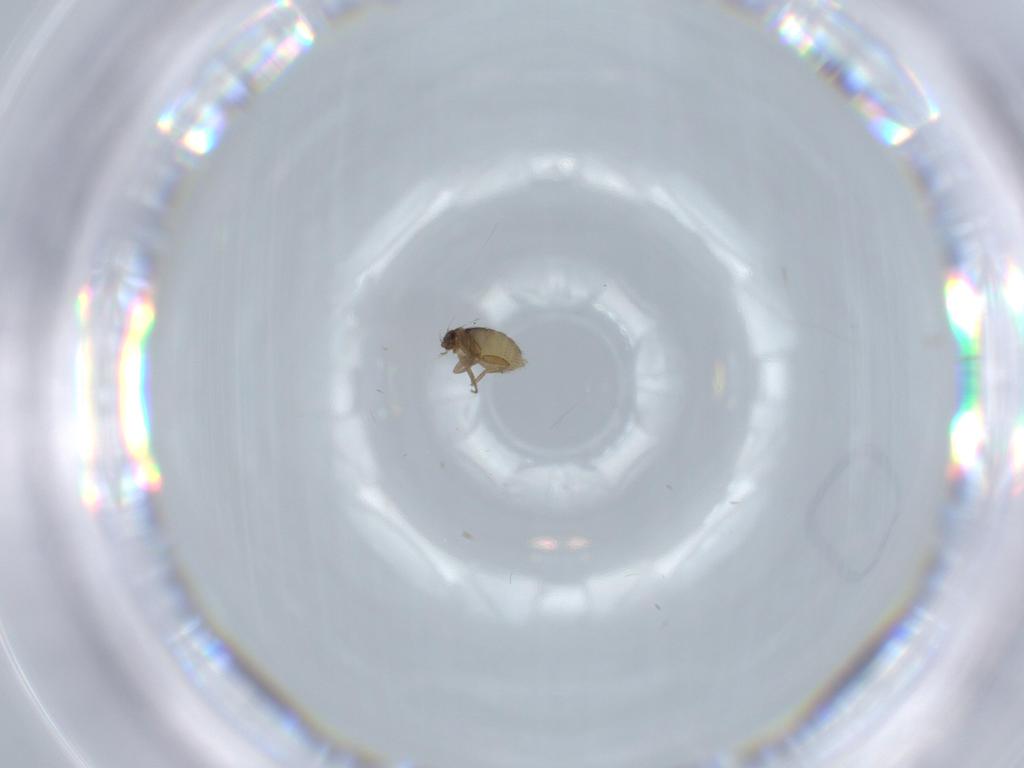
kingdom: Animalia
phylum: Arthropoda
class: Insecta
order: Diptera
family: Phoridae
